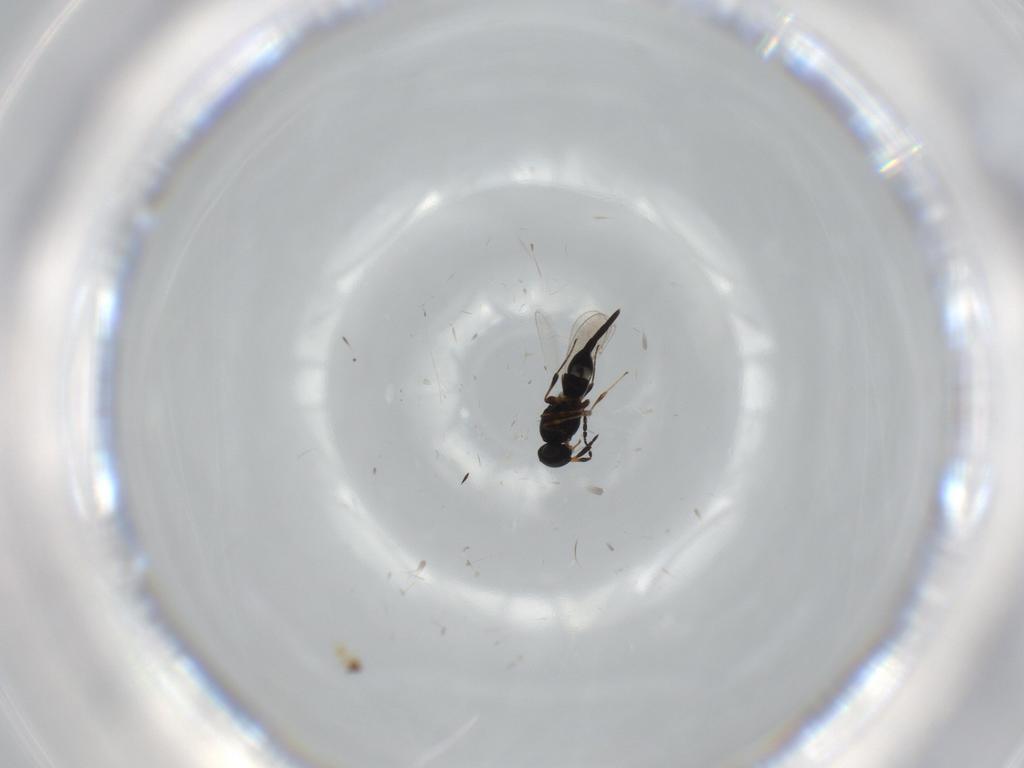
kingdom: Animalia
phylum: Arthropoda
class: Insecta
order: Hymenoptera
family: Platygastridae
